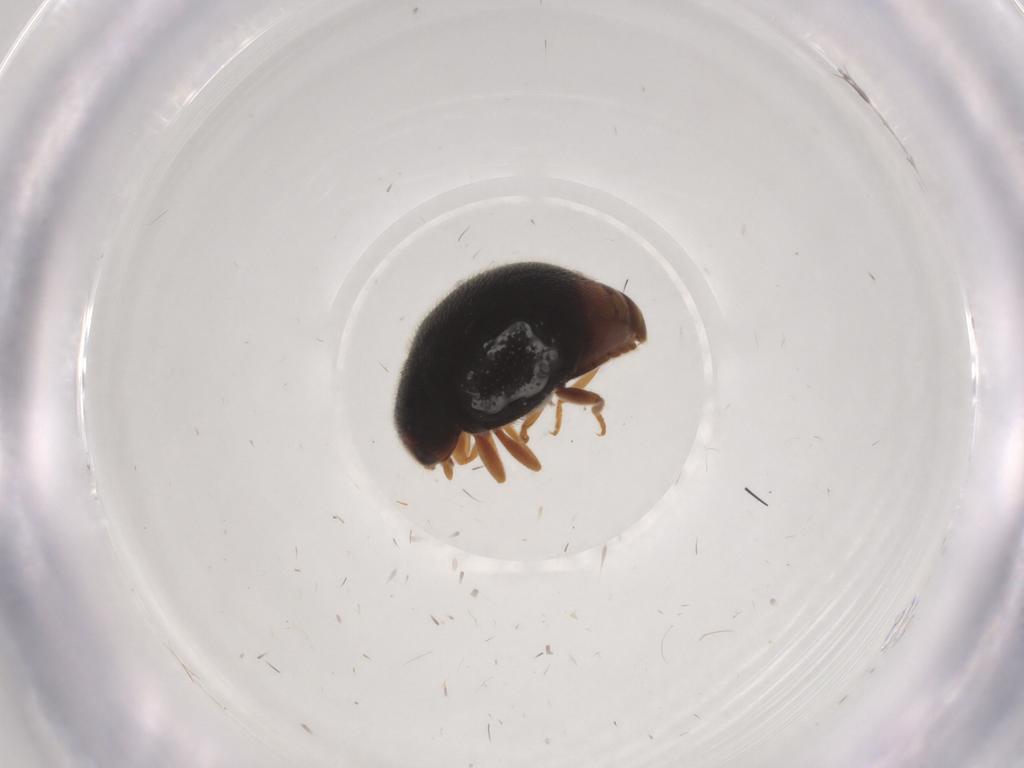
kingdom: Animalia
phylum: Arthropoda
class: Insecta
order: Coleoptera
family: Coccinellidae
